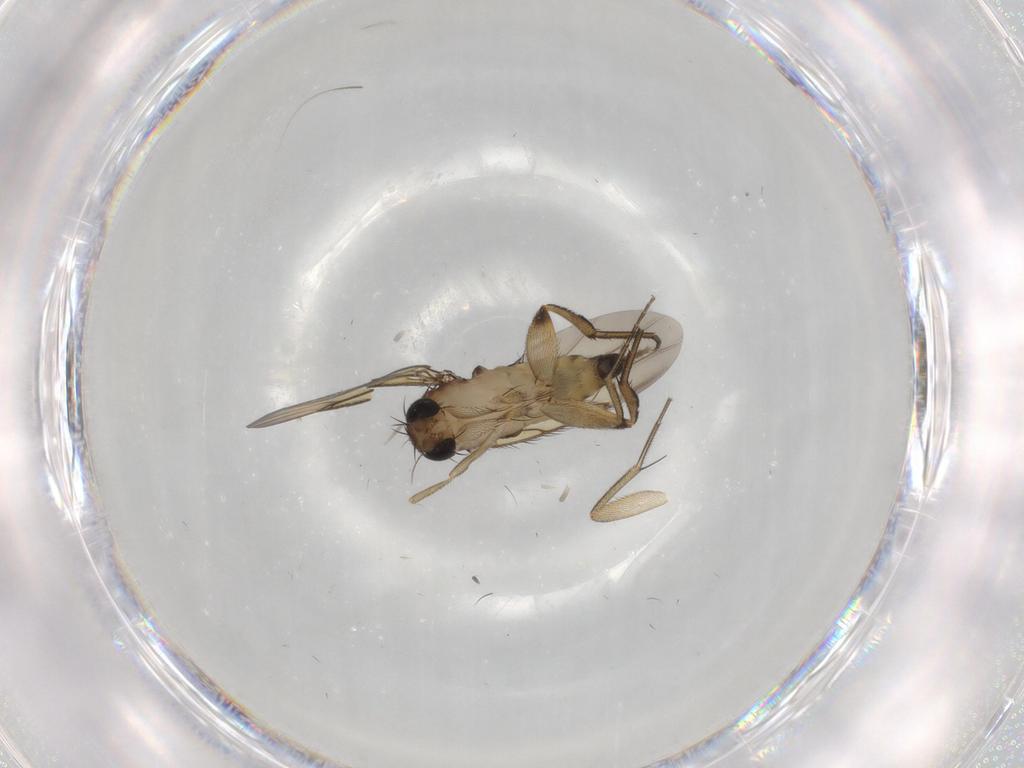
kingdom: Animalia
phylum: Arthropoda
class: Insecta
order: Diptera
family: Phoridae
